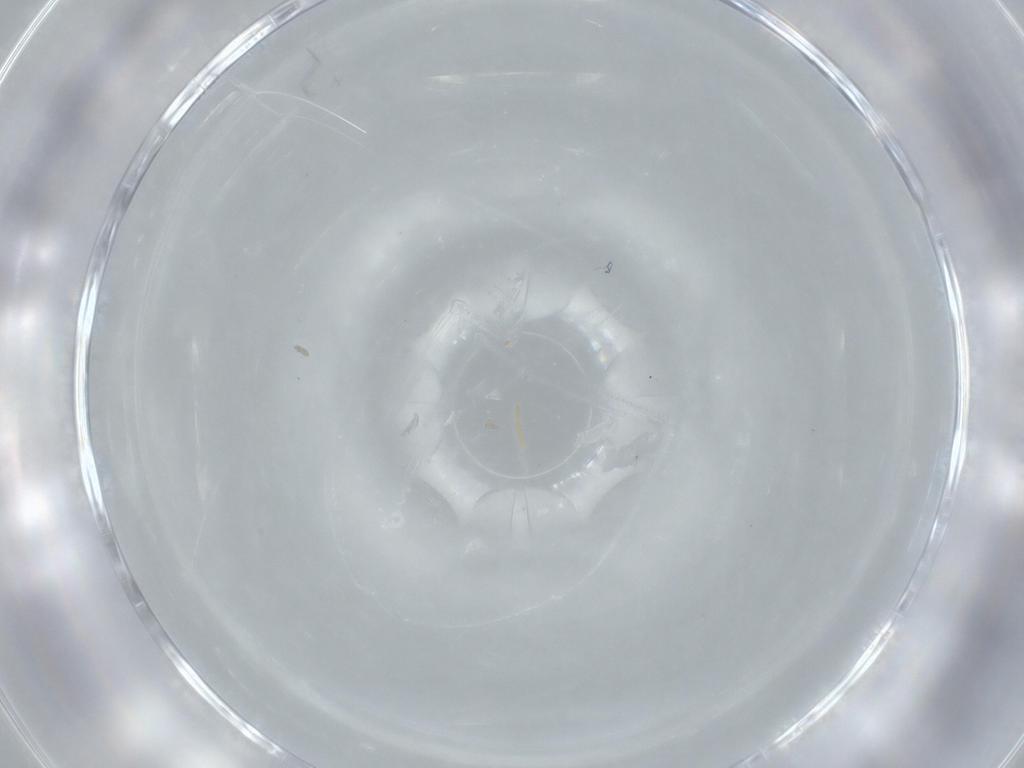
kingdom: Animalia
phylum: Arthropoda
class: Insecta
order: Psocodea
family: Lepidopsocidae
